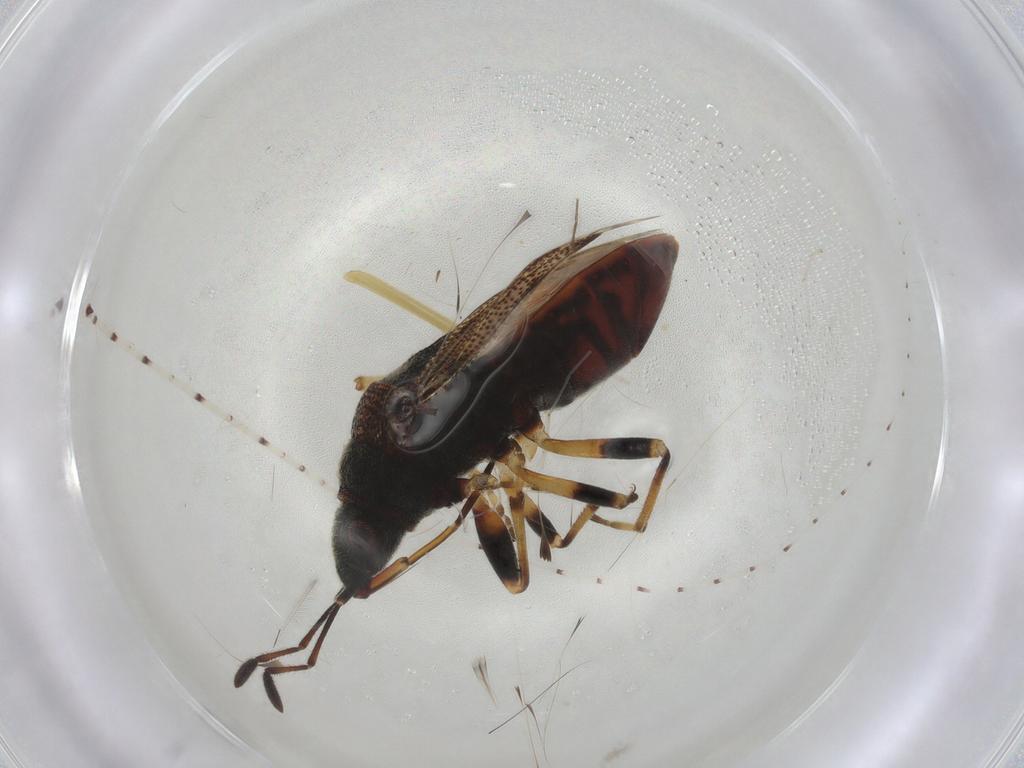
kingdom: Animalia
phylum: Arthropoda
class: Insecta
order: Hemiptera
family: Rhyparochromidae
